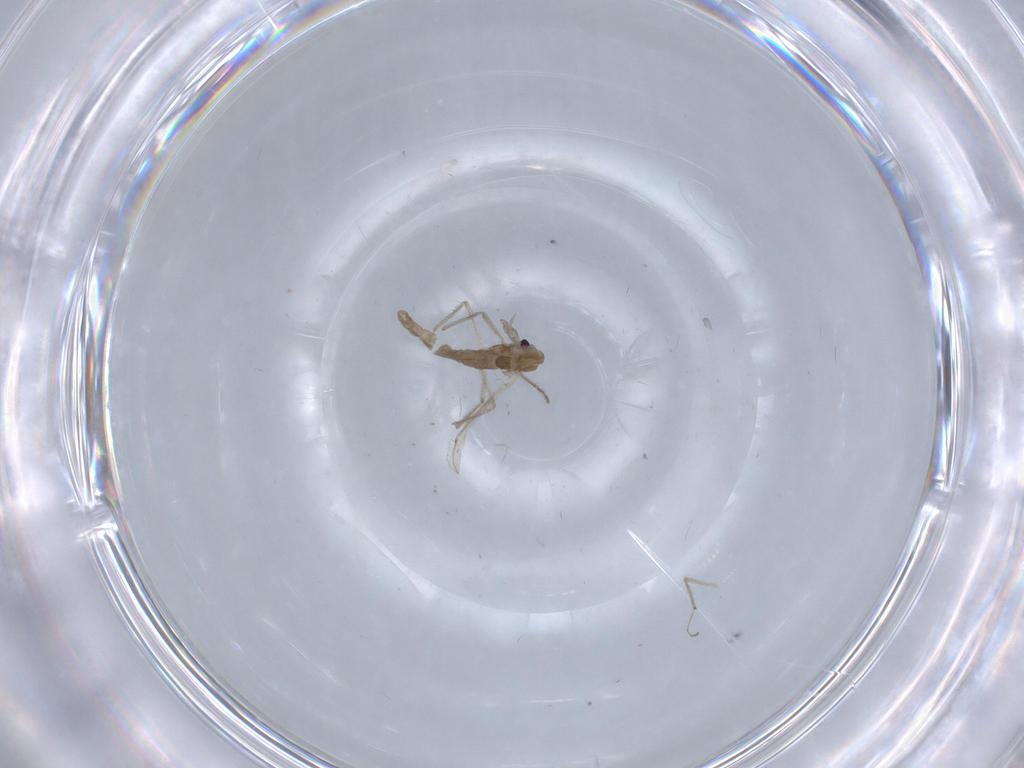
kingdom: Animalia
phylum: Arthropoda
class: Insecta
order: Diptera
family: Chironomidae
